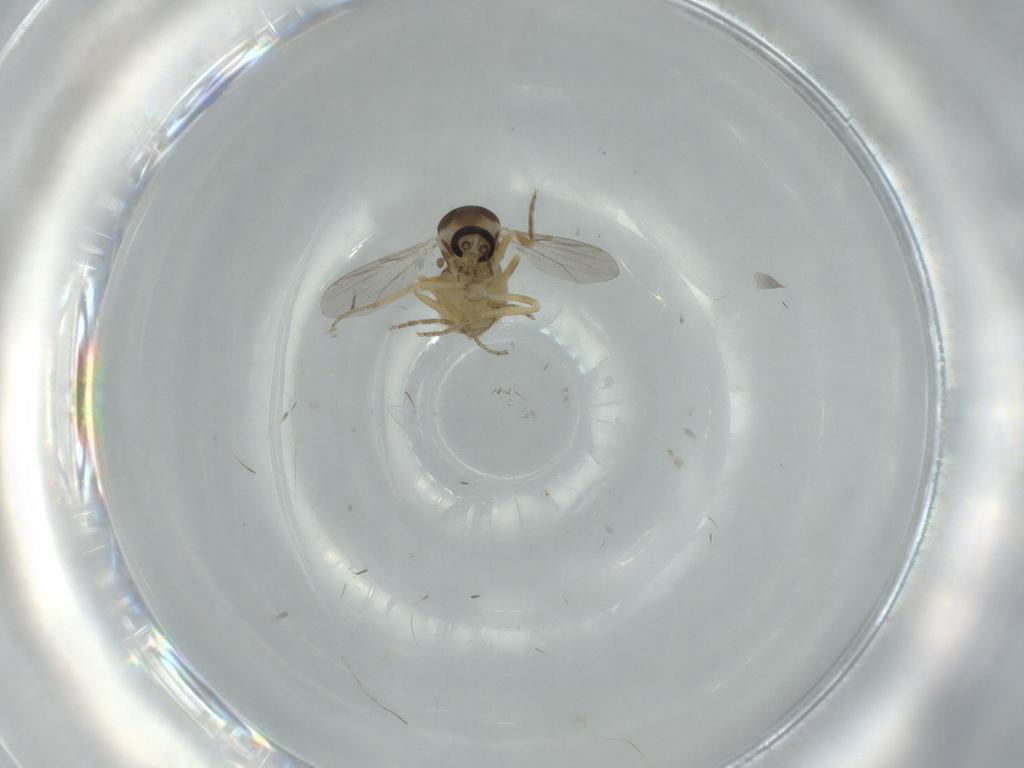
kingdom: Animalia
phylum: Arthropoda
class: Insecta
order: Diptera
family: Ceratopogonidae
